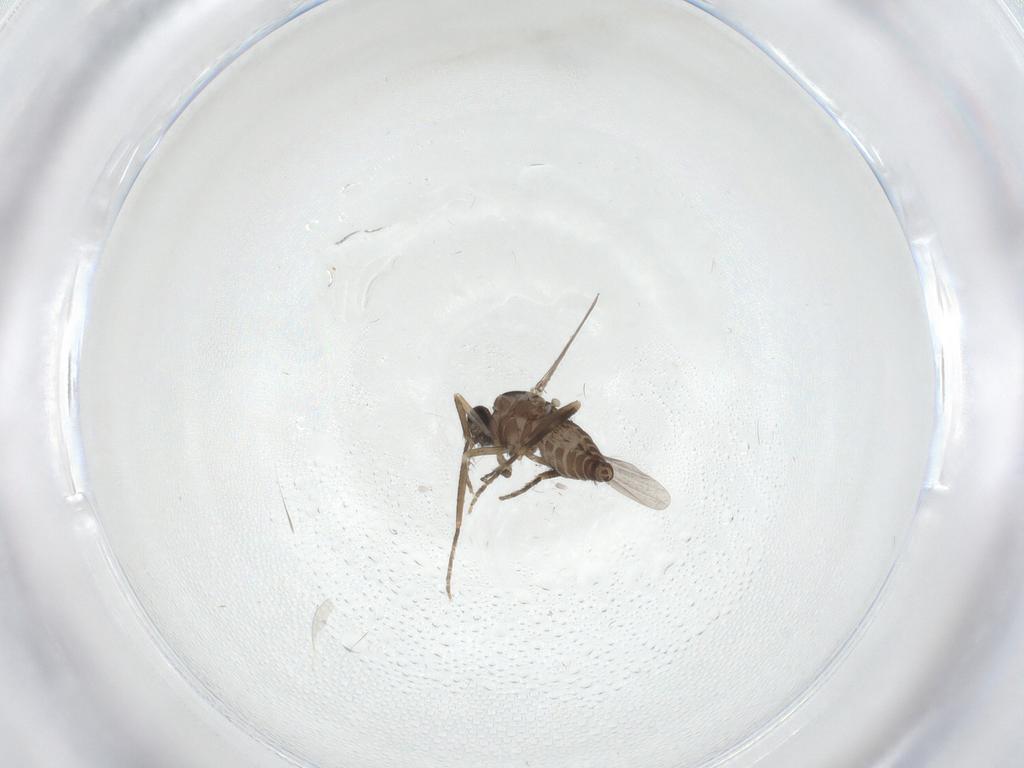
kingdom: Animalia
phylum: Arthropoda
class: Insecta
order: Diptera
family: Ceratopogonidae
